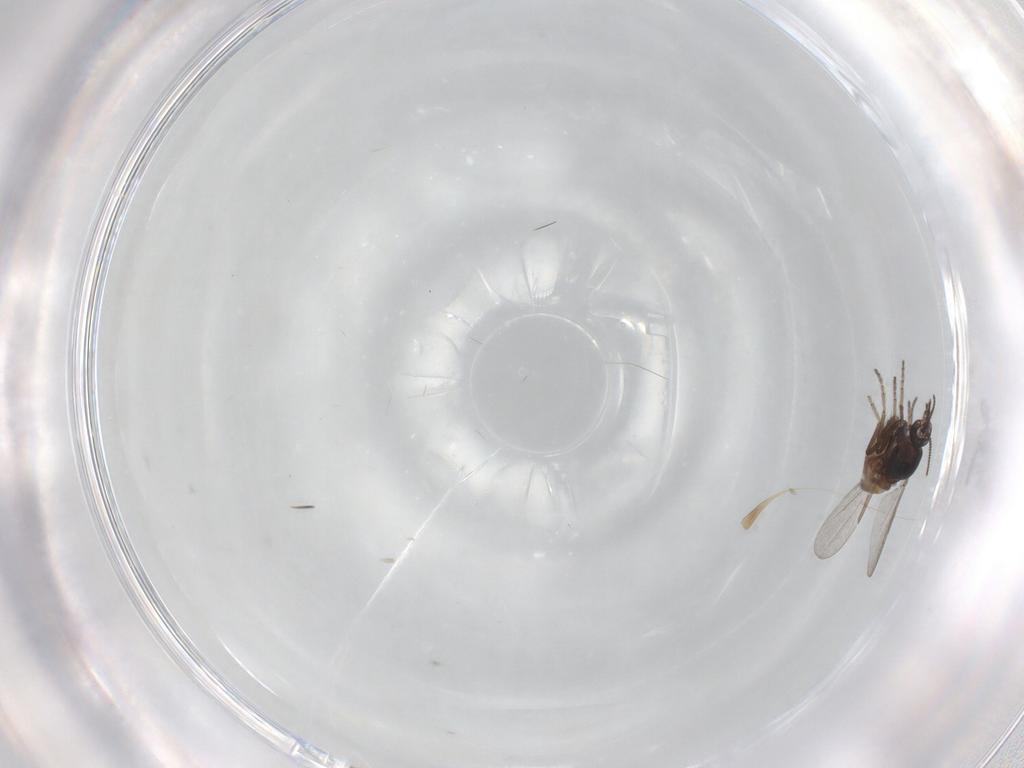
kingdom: Animalia
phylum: Arthropoda
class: Insecta
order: Diptera
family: Ceratopogonidae
